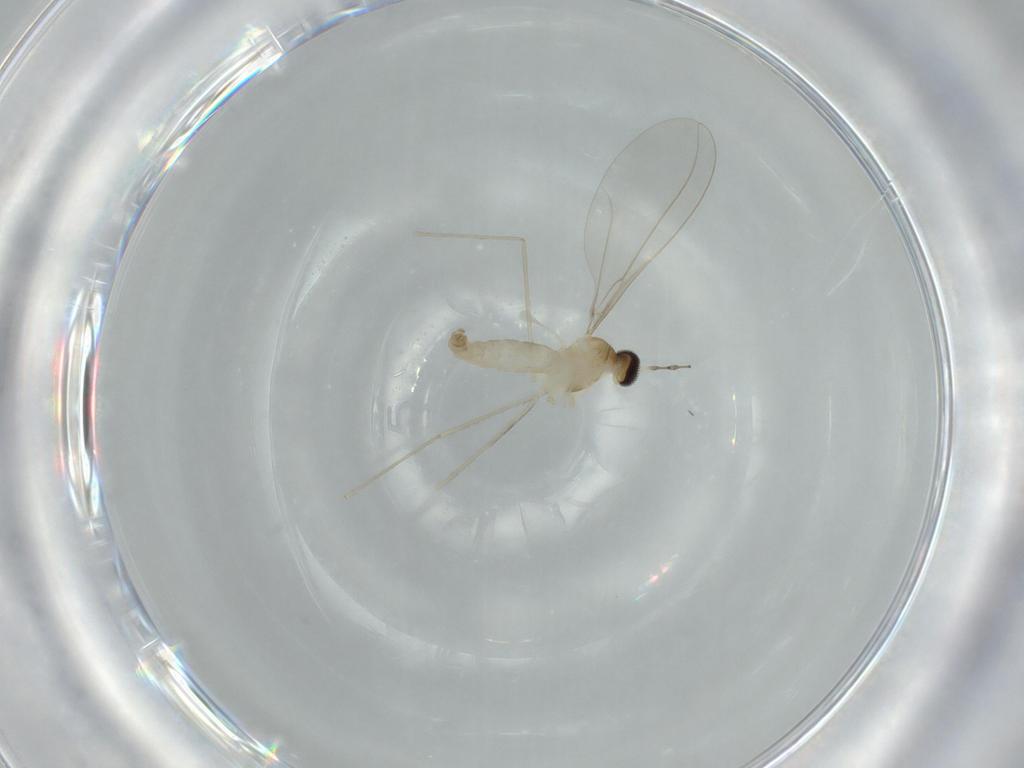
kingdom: Animalia
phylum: Arthropoda
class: Insecta
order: Diptera
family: Cecidomyiidae
